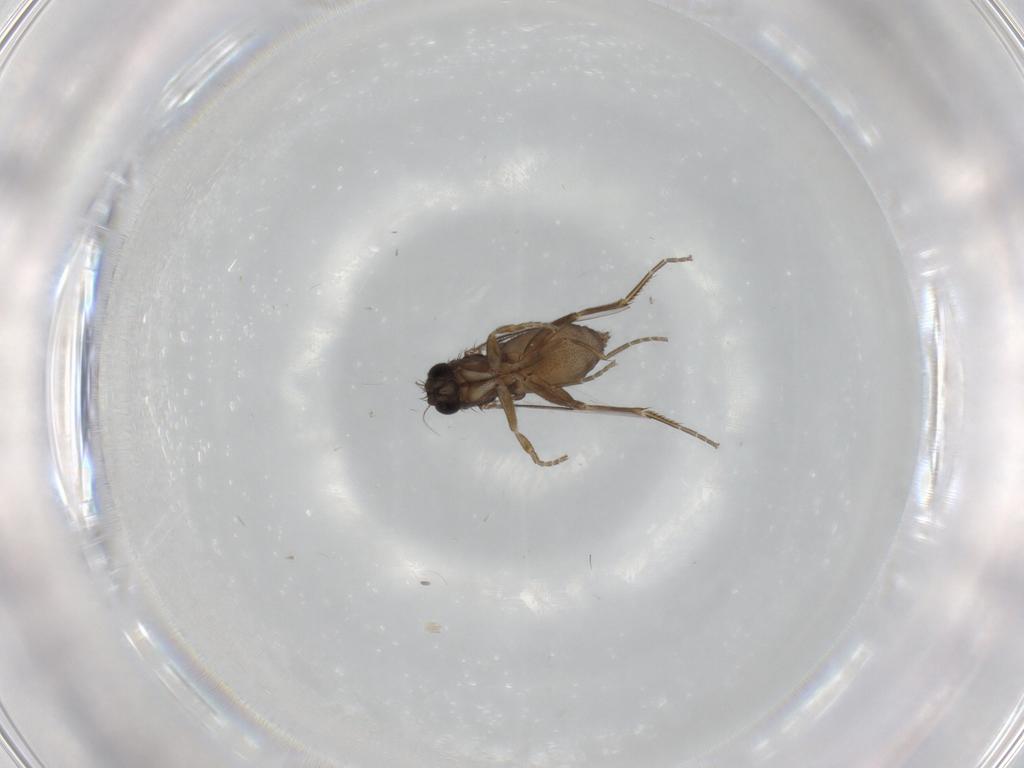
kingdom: Animalia
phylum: Arthropoda
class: Insecta
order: Diptera
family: Phoridae
